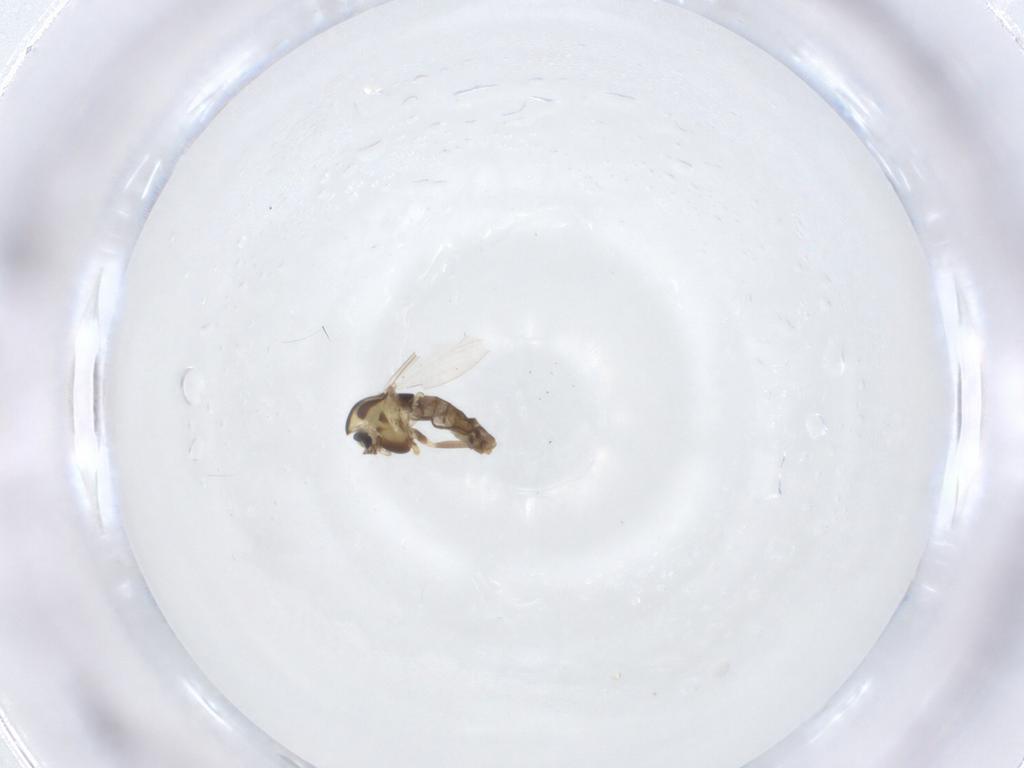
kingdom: Animalia
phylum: Arthropoda
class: Insecta
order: Diptera
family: Chironomidae
